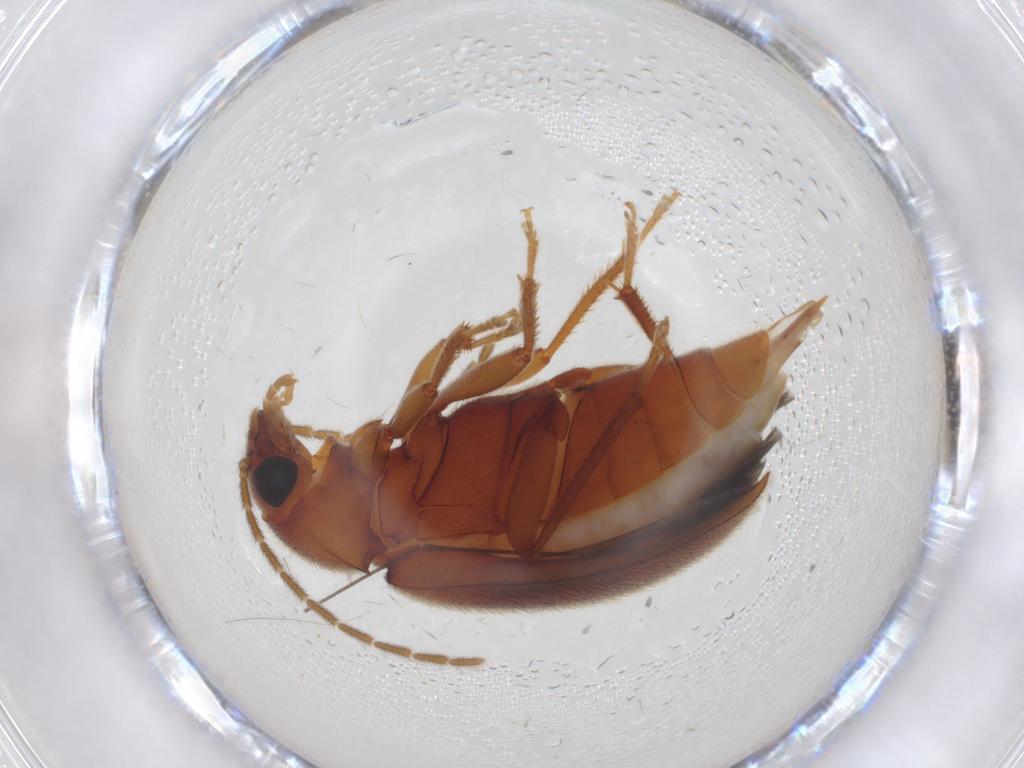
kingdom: Animalia
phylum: Arthropoda
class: Insecta
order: Coleoptera
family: Ptilodactylidae
